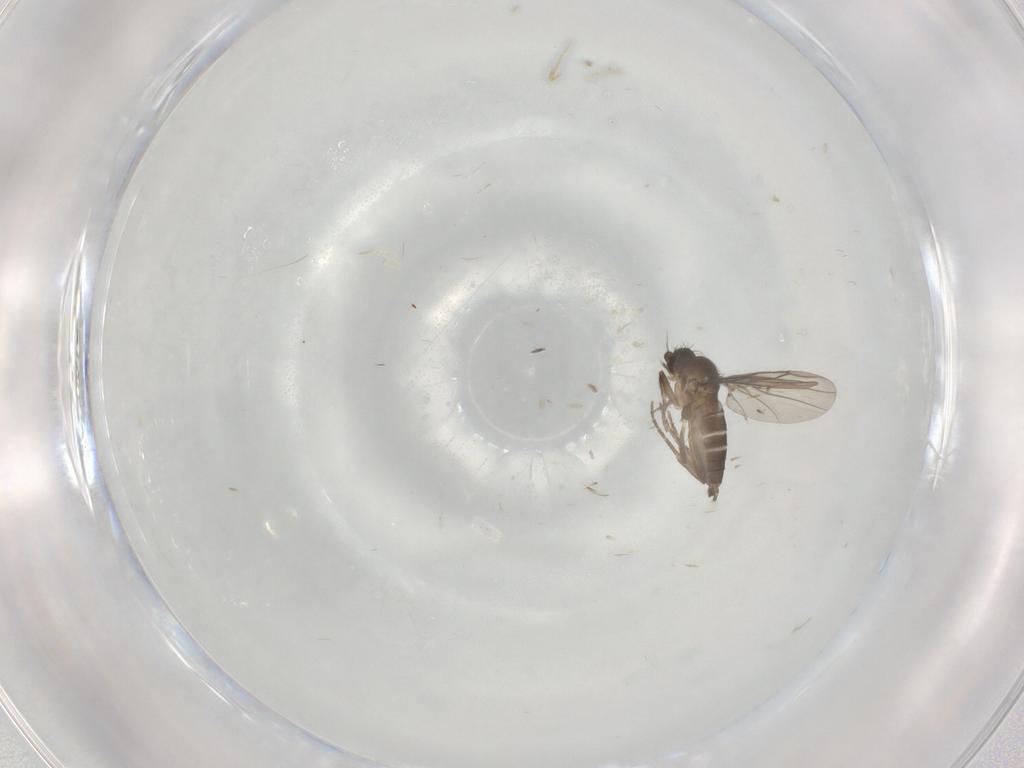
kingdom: Animalia
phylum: Arthropoda
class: Insecta
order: Diptera
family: Phoridae
